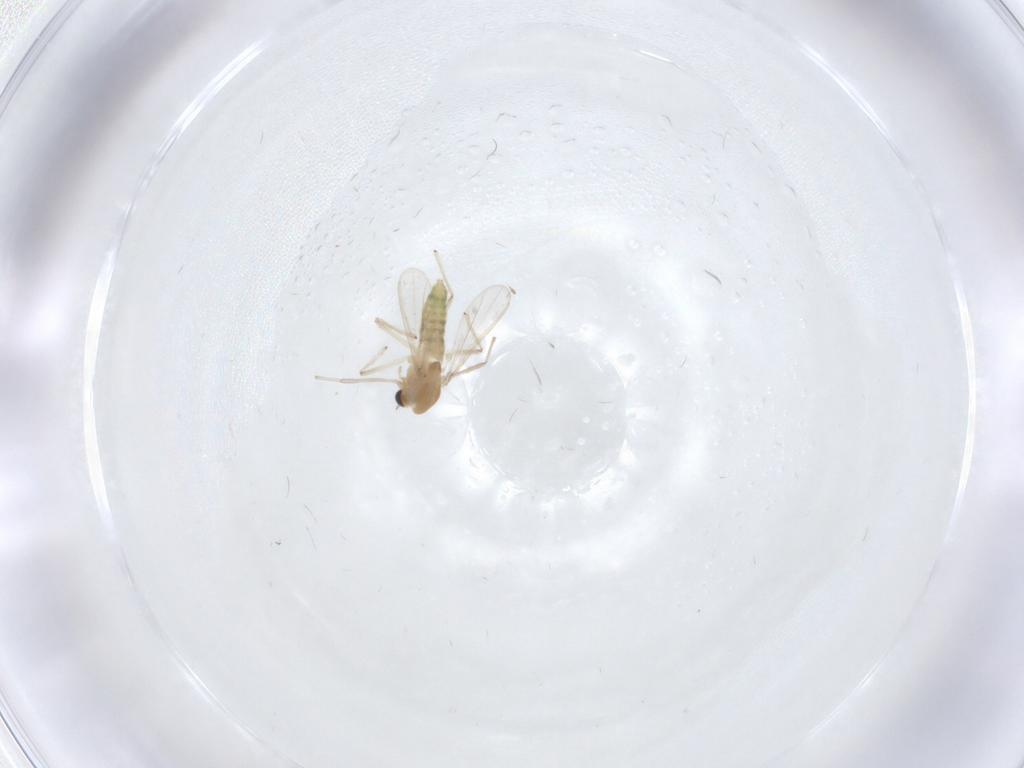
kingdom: Animalia
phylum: Arthropoda
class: Insecta
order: Diptera
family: Chironomidae
